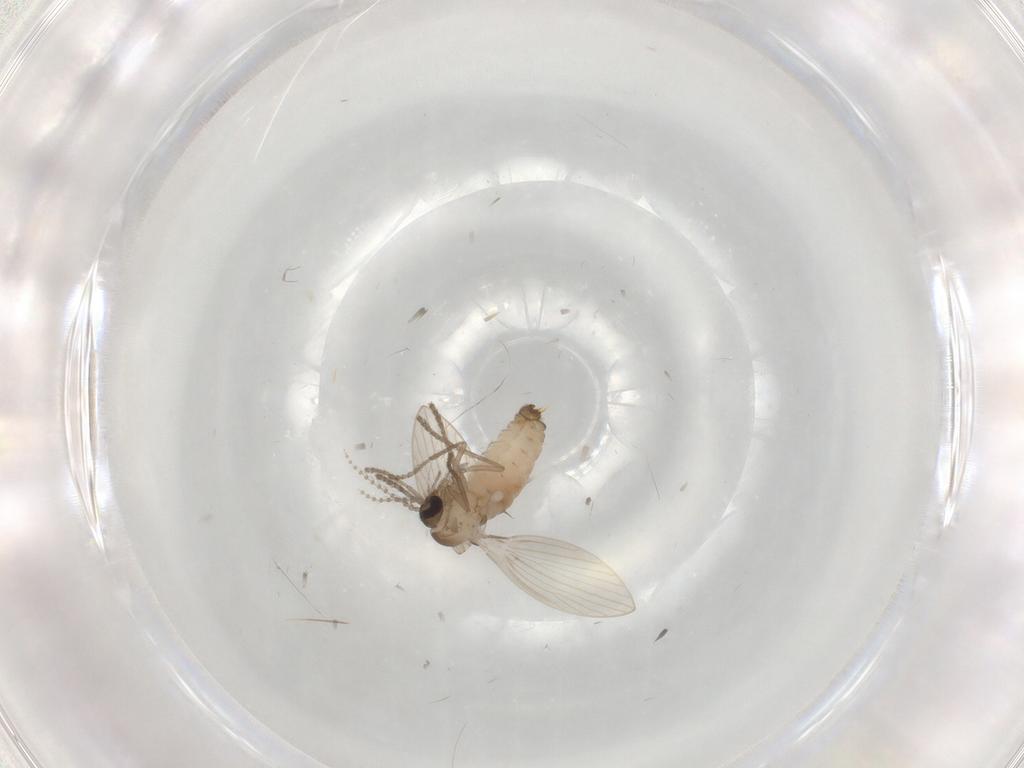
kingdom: Animalia
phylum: Arthropoda
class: Insecta
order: Diptera
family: Psychodidae
